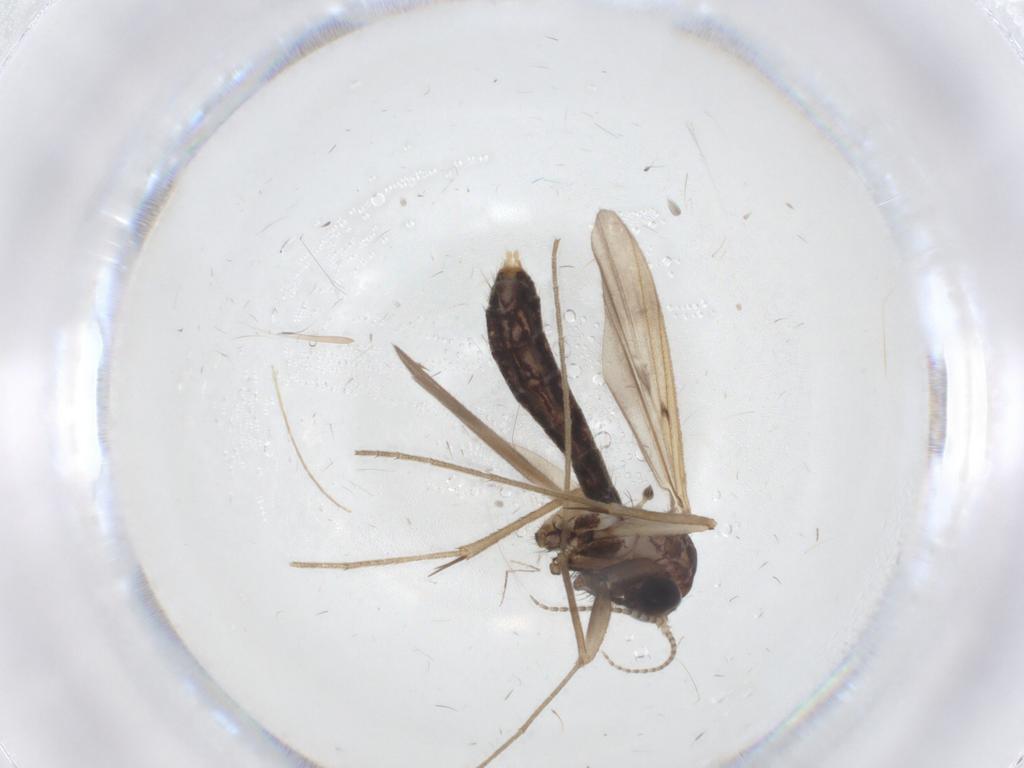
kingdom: Animalia
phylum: Arthropoda
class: Insecta
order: Diptera
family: Cecidomyiidae
